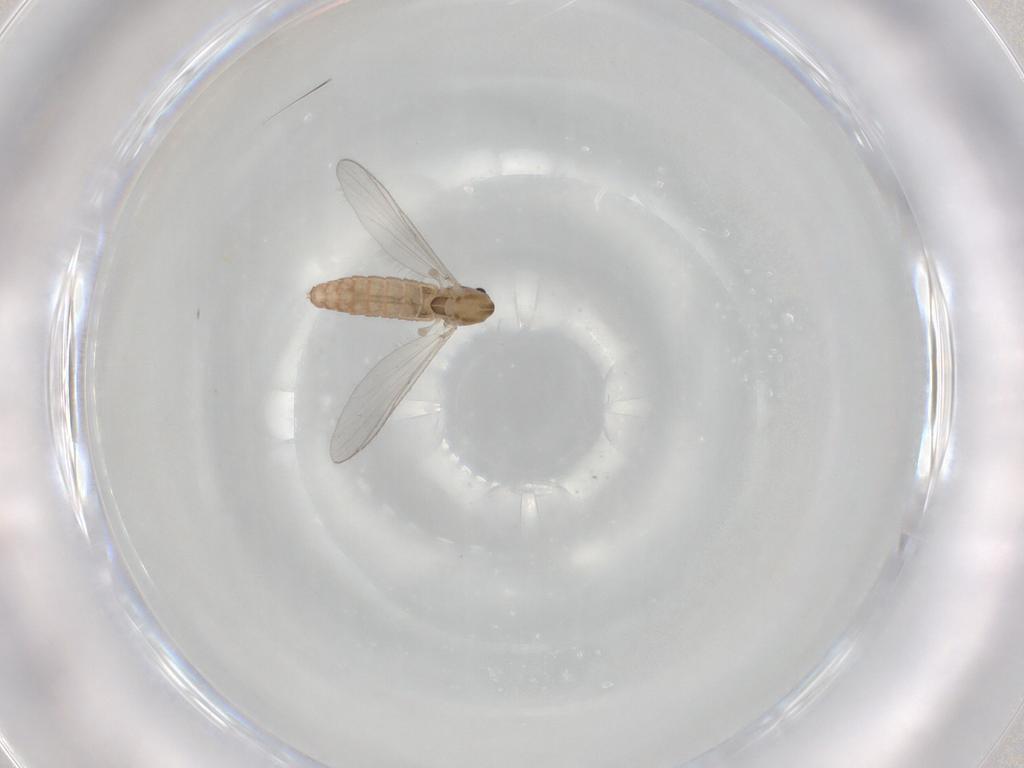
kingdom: Animalia
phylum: Arthropoda
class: Insecta
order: Diptera
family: Chironomidae
